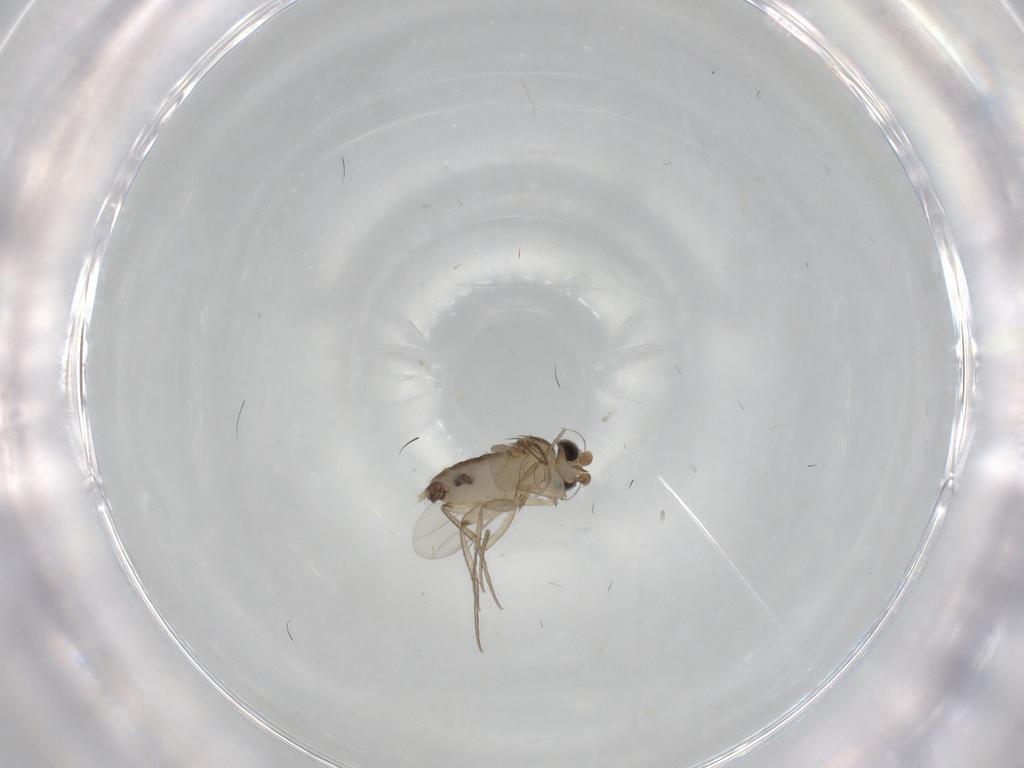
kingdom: Animalia
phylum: Arthropoda
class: Insecta
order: Diptera
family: Phoridae
